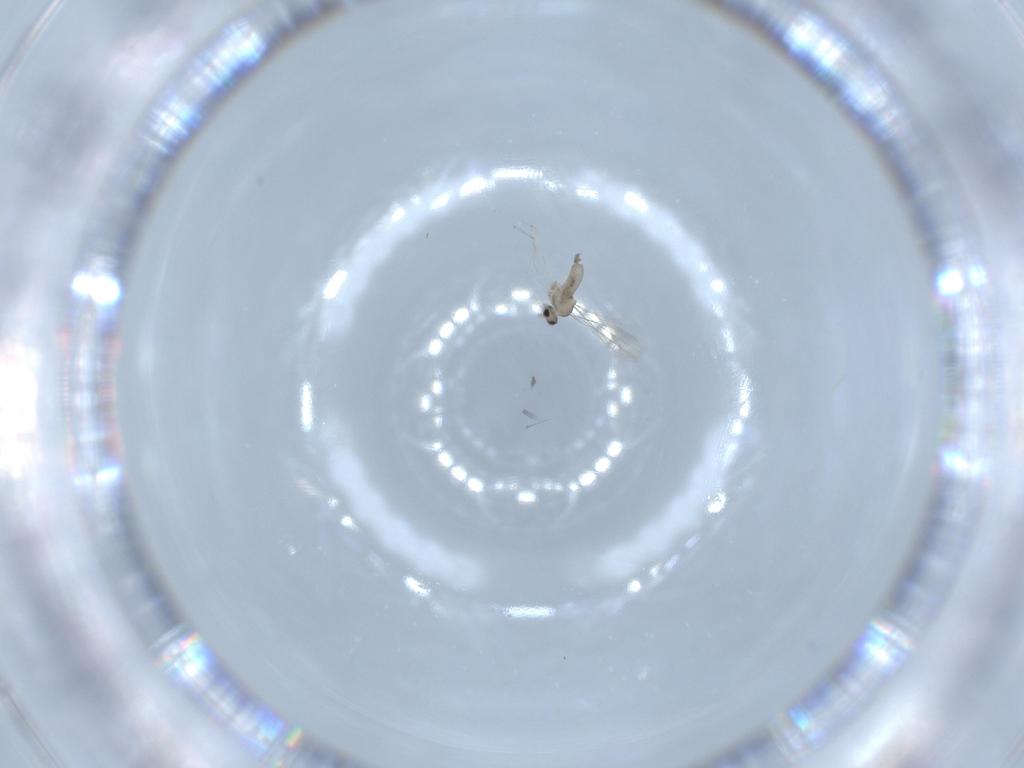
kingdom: Animalia
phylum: Arthropoda
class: Insecta
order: Diptera
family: Cecidomyiidae
